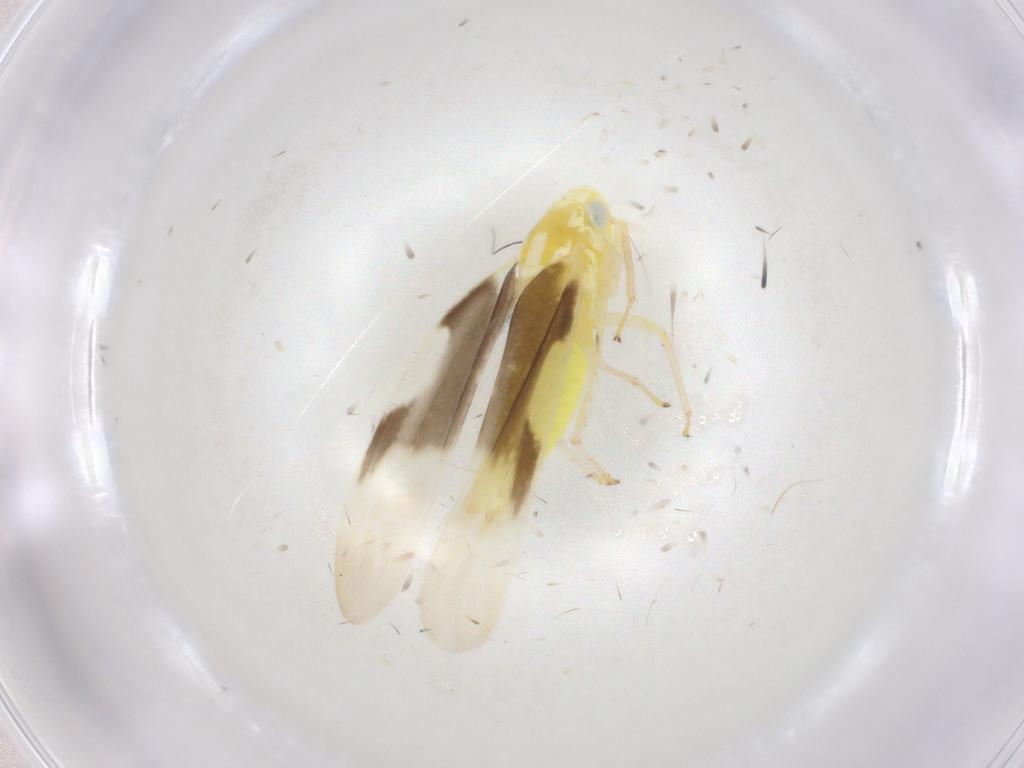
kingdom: Animalia
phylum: Arthropoda
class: Insecta
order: Hemiptera
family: Cicadellidae
